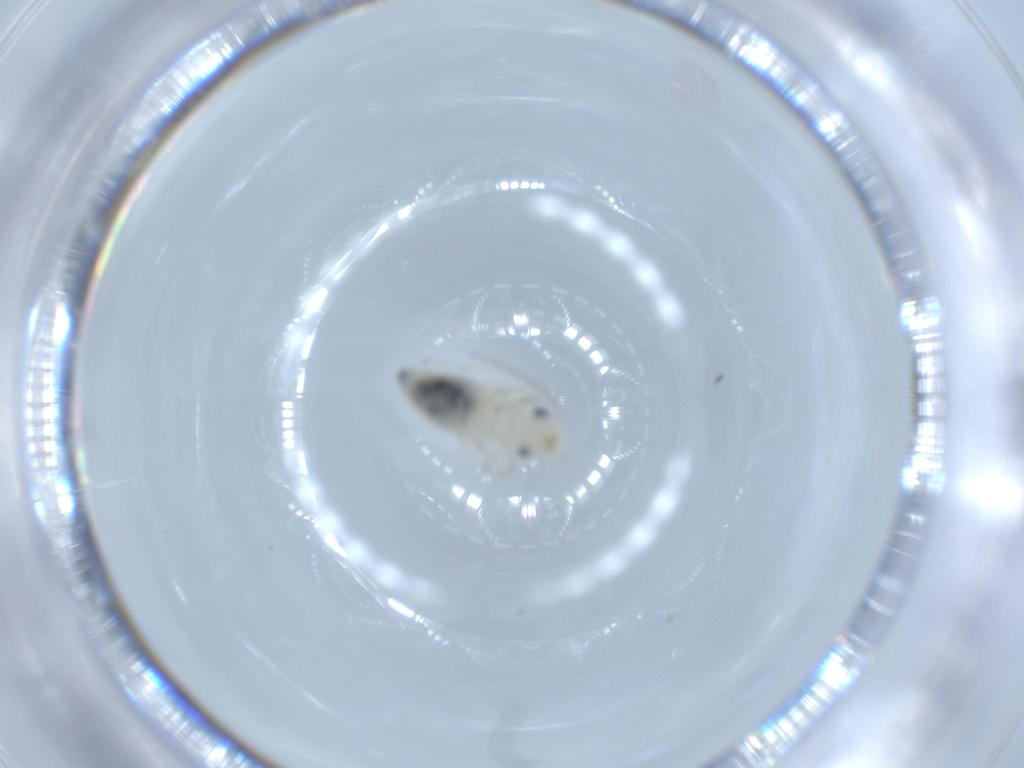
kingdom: Animalia
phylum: Arthropoda
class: Insecta
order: Psocodea
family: Caeciliusidae
